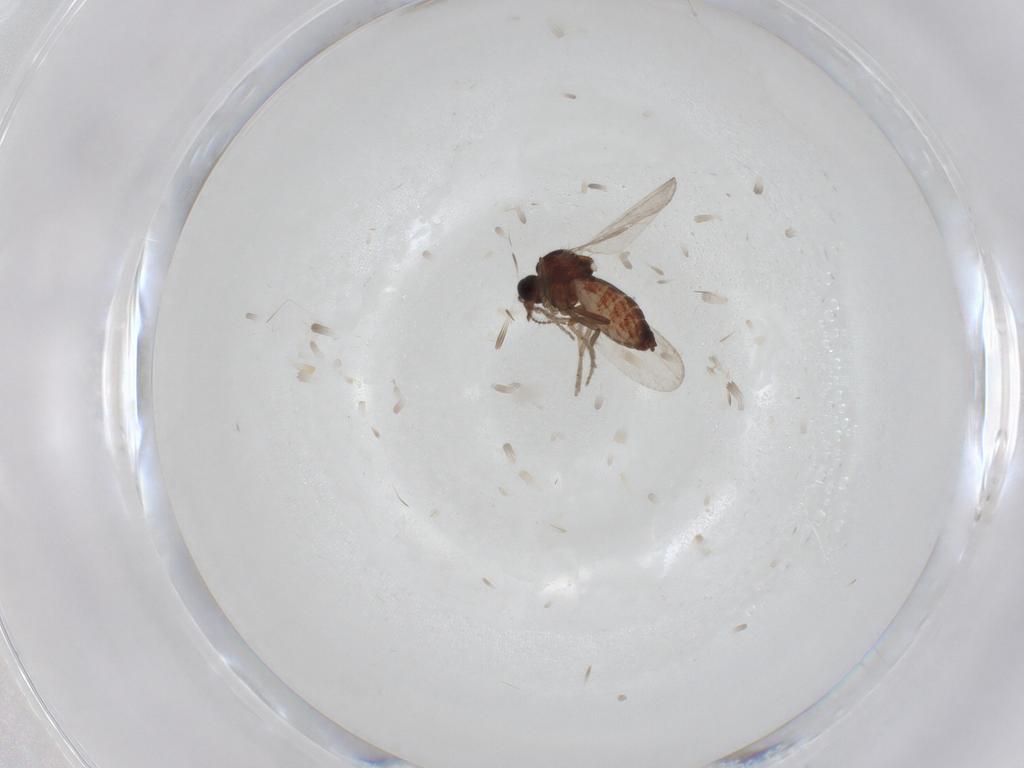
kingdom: Animalia
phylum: Arthropoda
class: Insecta
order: Diptera
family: Ceratopogonidae
